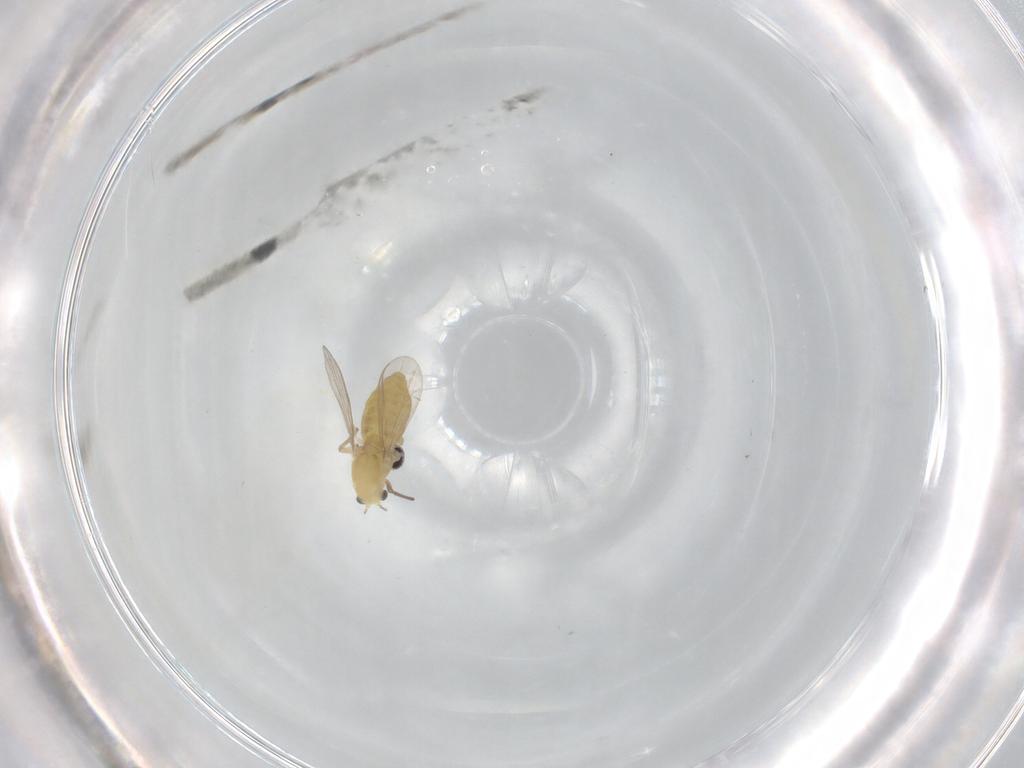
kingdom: Animalia
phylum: Arthropoda
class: Insecta
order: Diptera
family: Chironomidae
